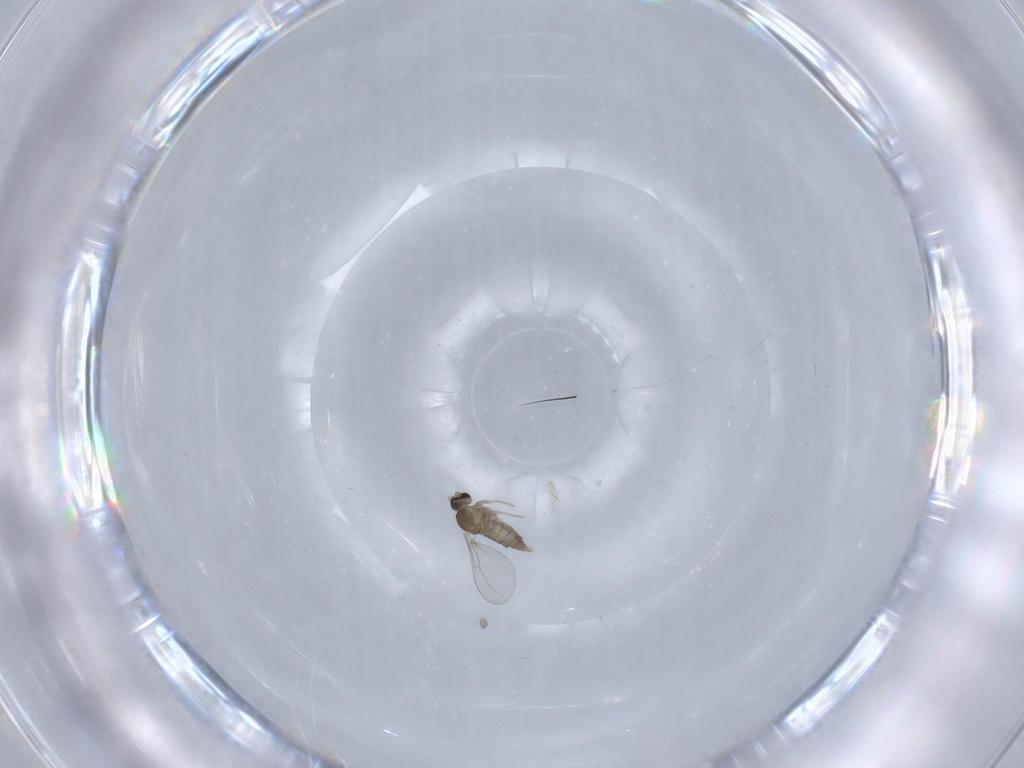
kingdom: Animalia
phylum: Arthropoda
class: Insecta
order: Diptera
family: Cecidomyiidae
